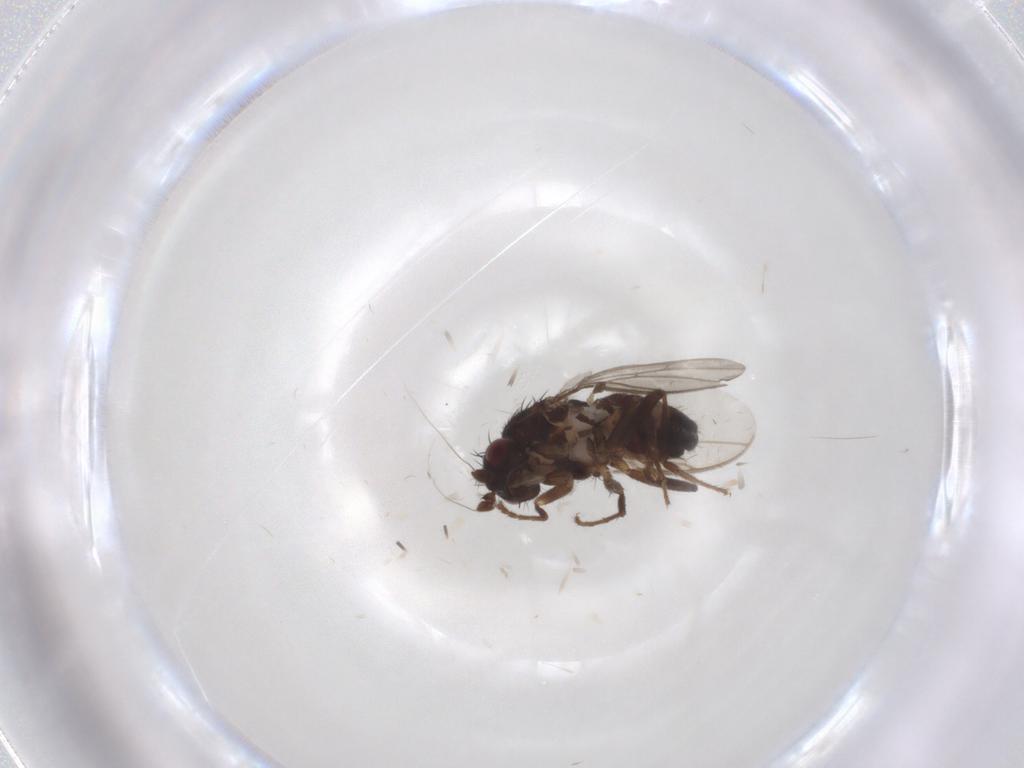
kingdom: Animalia
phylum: Arthropoda
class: Insecta
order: Diptera
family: Sphaeroceridae
